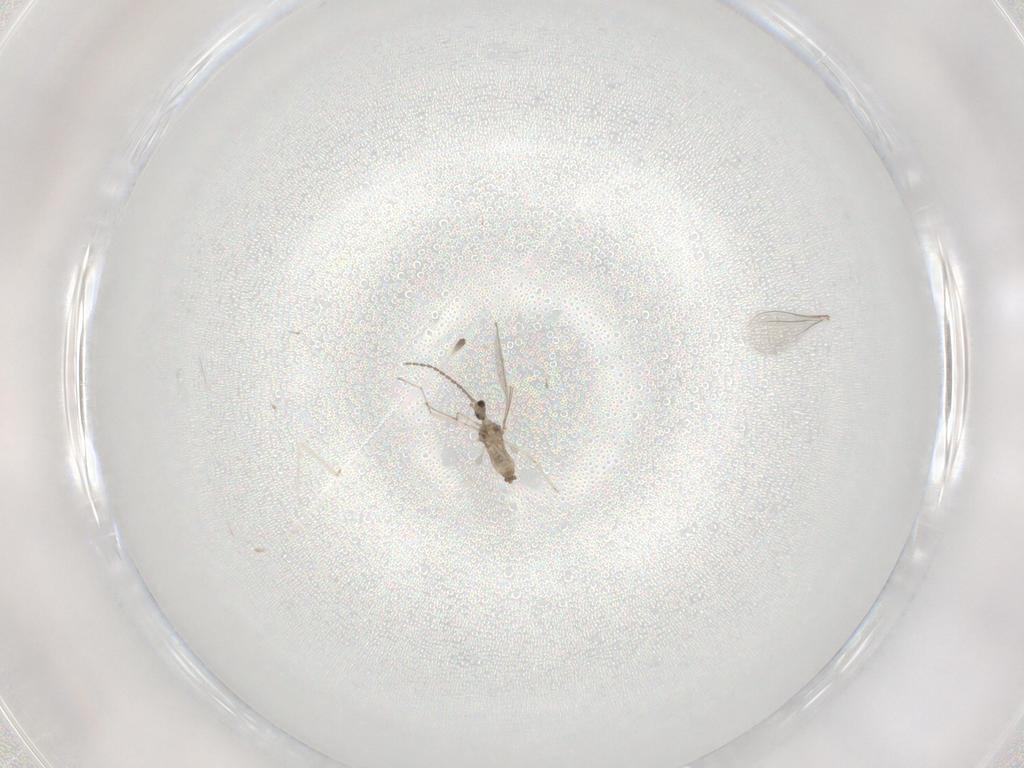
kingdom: Animalia
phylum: Arthropoda
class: Insecta
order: Diptera
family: Cecidomyiidae
